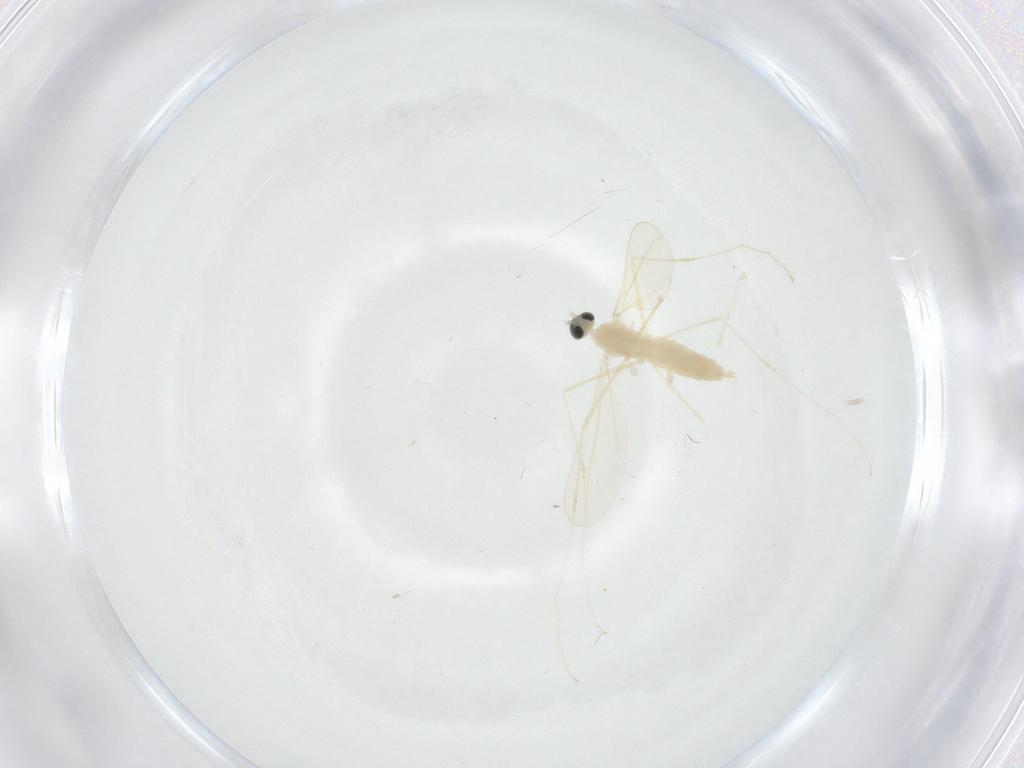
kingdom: Animalia
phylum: Arthropoda
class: Insecta
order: Diptera
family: Cecidomyiidae
